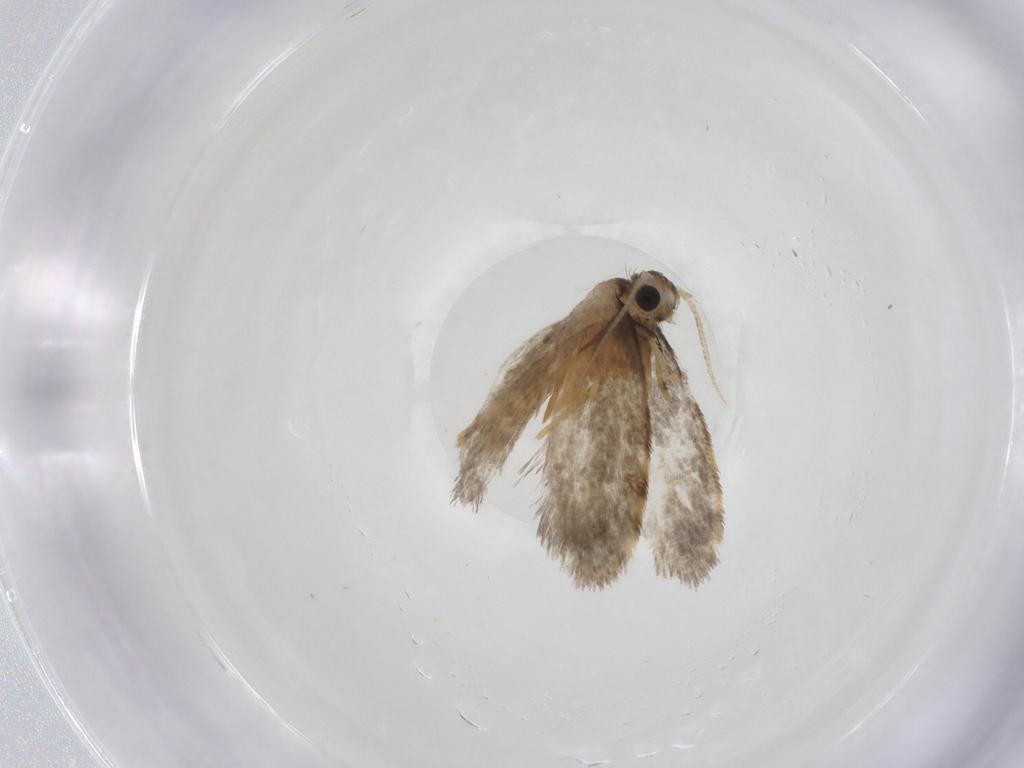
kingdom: Animalia
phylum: Arthropoda
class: Insecta
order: Lepidoptera
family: Psychidae
